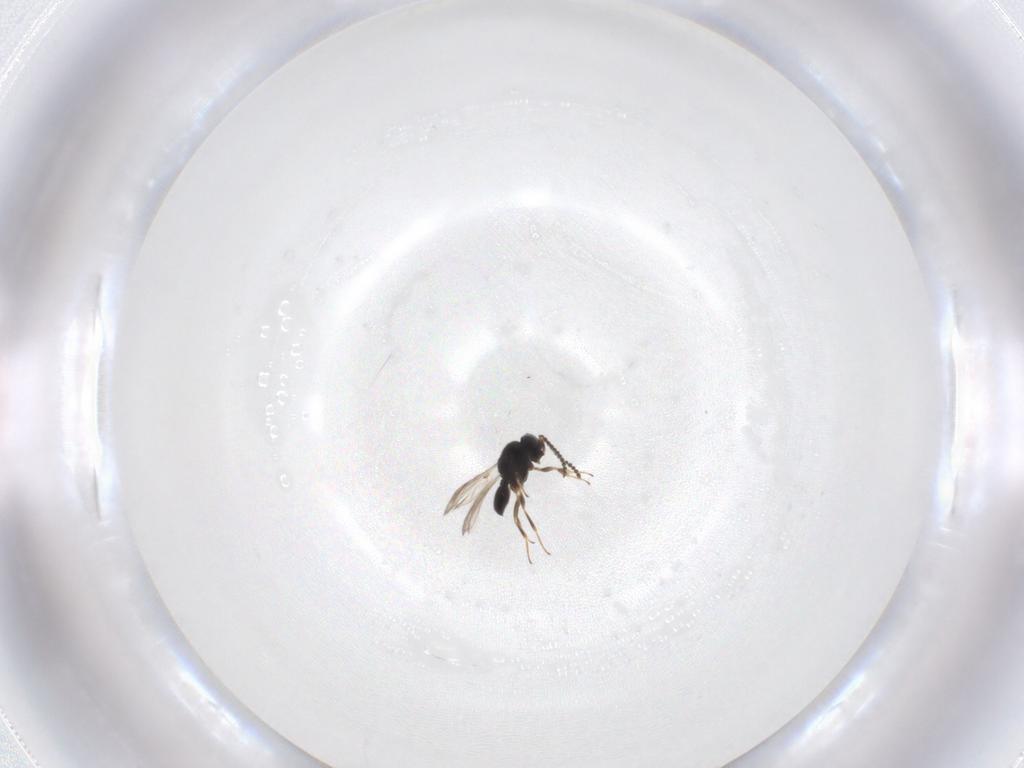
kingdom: Animalia
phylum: Arthropoda
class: Insecta
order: Hymenoptera
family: Scelionidae
